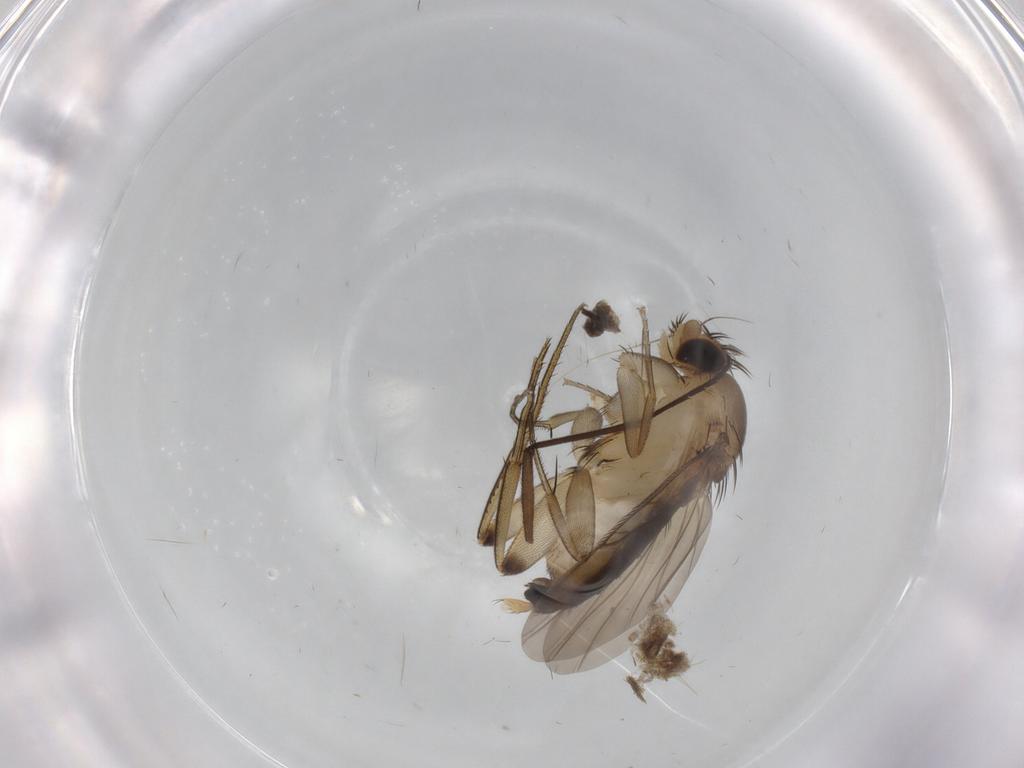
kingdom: Animalia
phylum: Arthropoda
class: Insecta
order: Diptera
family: Phoridae
